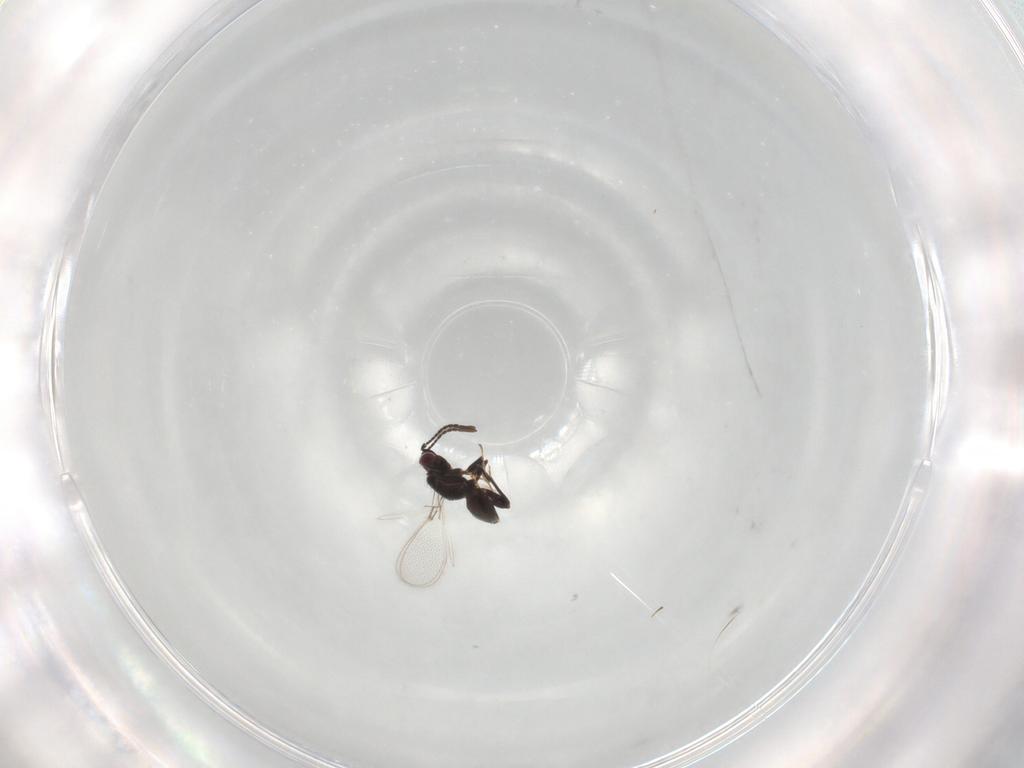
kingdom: Animalia
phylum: Arthropoda
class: Insecta
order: Hymenoptera
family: Mymaridae
